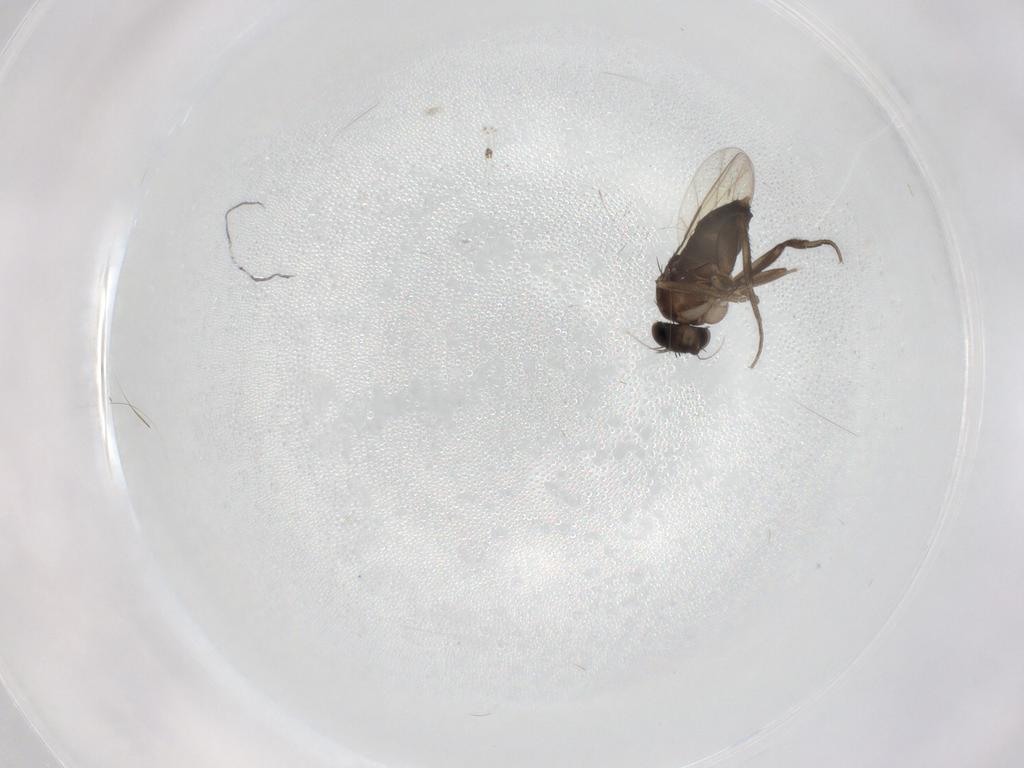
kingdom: Animalia
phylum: Arthropoda
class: Insecta
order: Diptera
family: Phoridae
